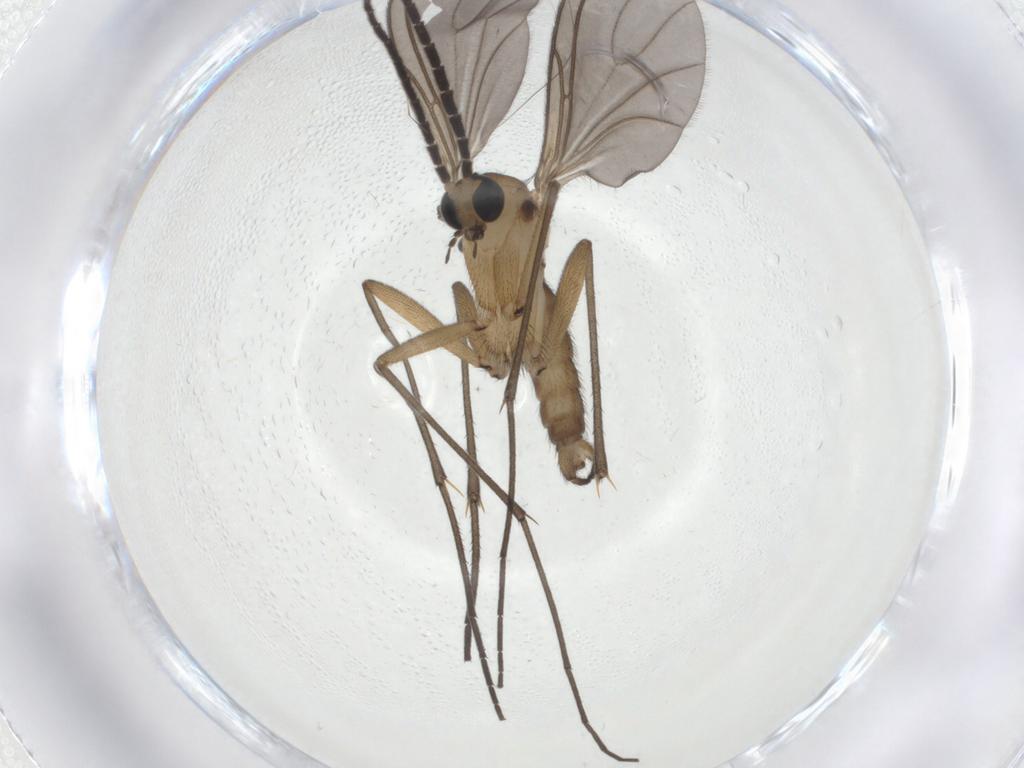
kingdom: Animalia
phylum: Arthropoda
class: Insecta
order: Diptera
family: Sciaridae
